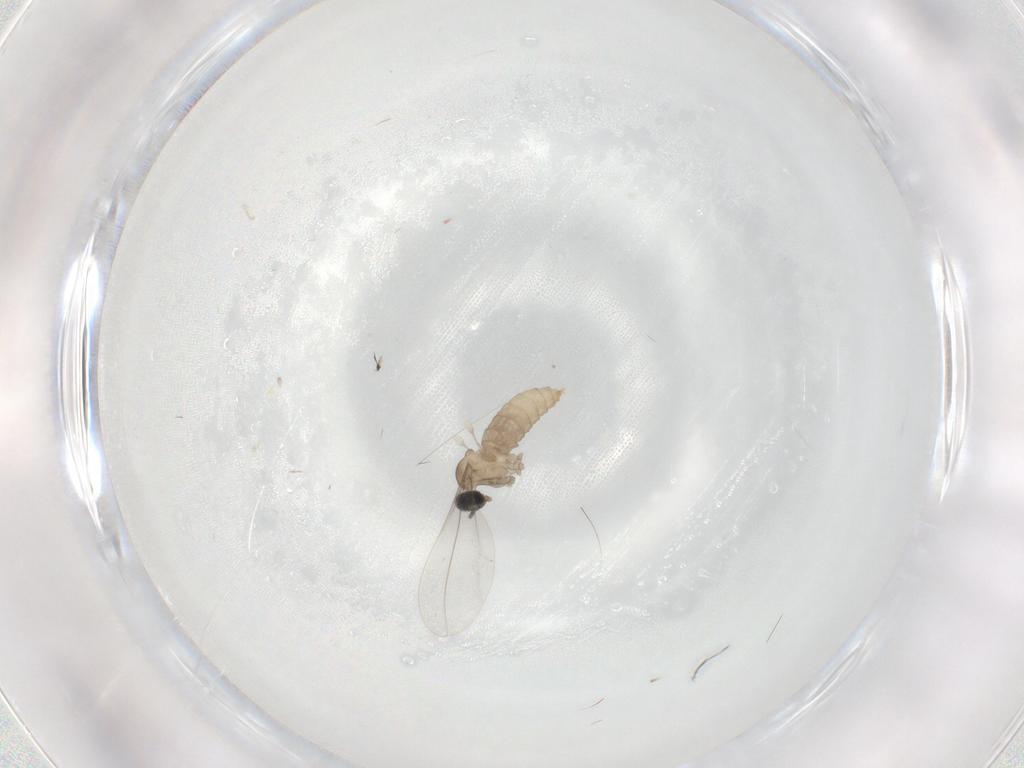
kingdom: Animalia
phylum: Arthropoda
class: Insecta
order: Diptera
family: Cecidomyiidae
